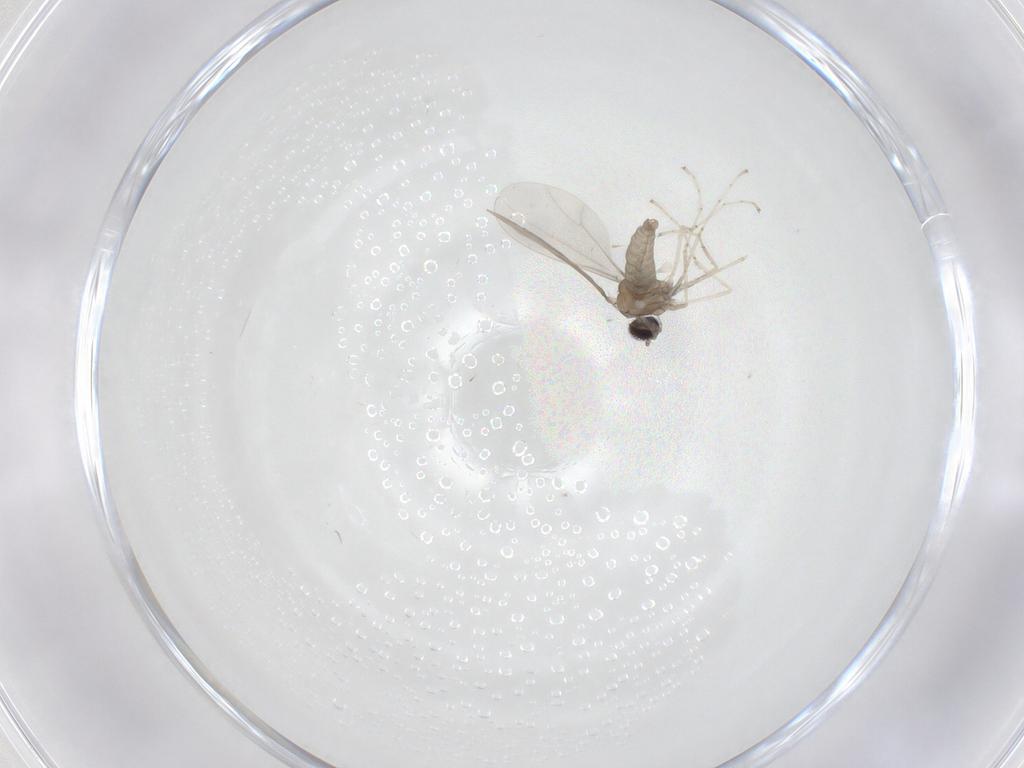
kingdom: Animalia
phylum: Arthropoda
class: Insecta
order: Diptera
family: Cecidomyiidae
